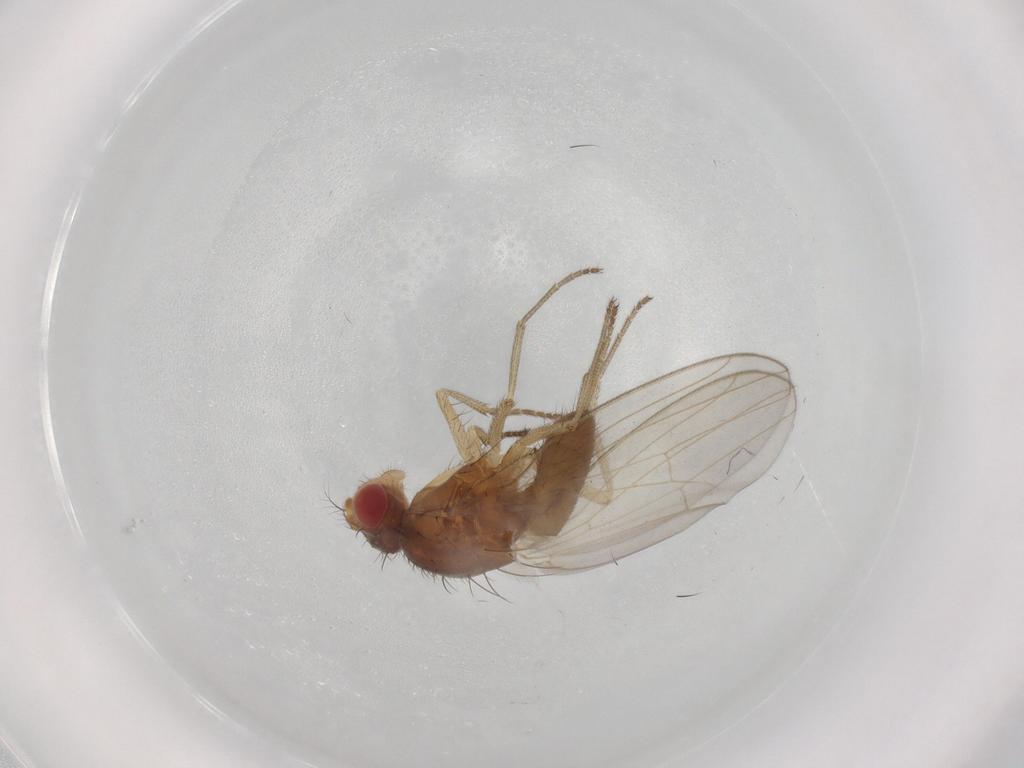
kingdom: Animalia
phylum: Arthropoda
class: Insecta
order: Diptera
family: Drosophilidae
